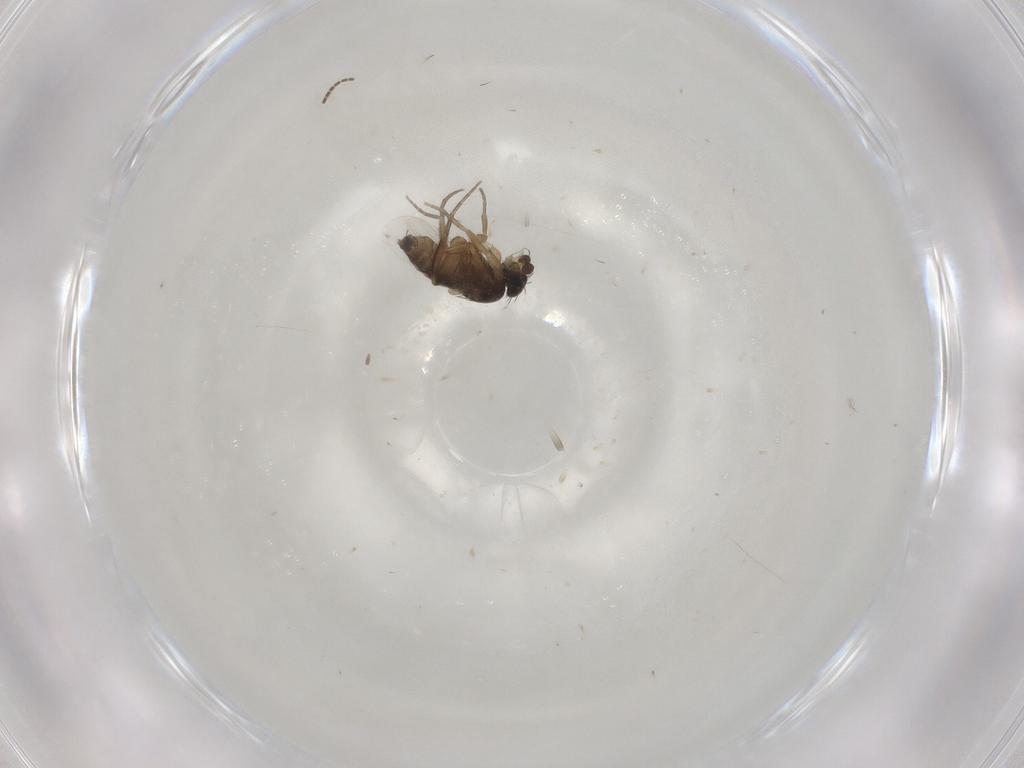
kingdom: Animalia
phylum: Arthropoda
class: Insecta
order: Diptera
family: Phoridae
